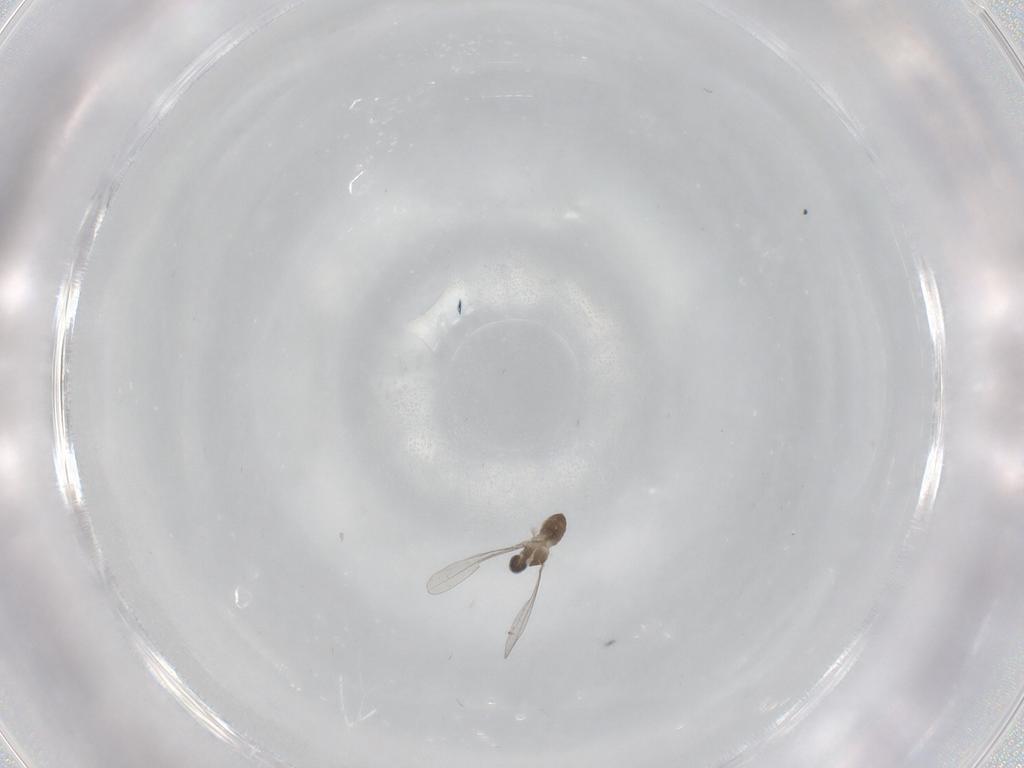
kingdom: Animalia
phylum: Arthropoda
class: Insecta
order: Diptera
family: Cecidomyiidae
